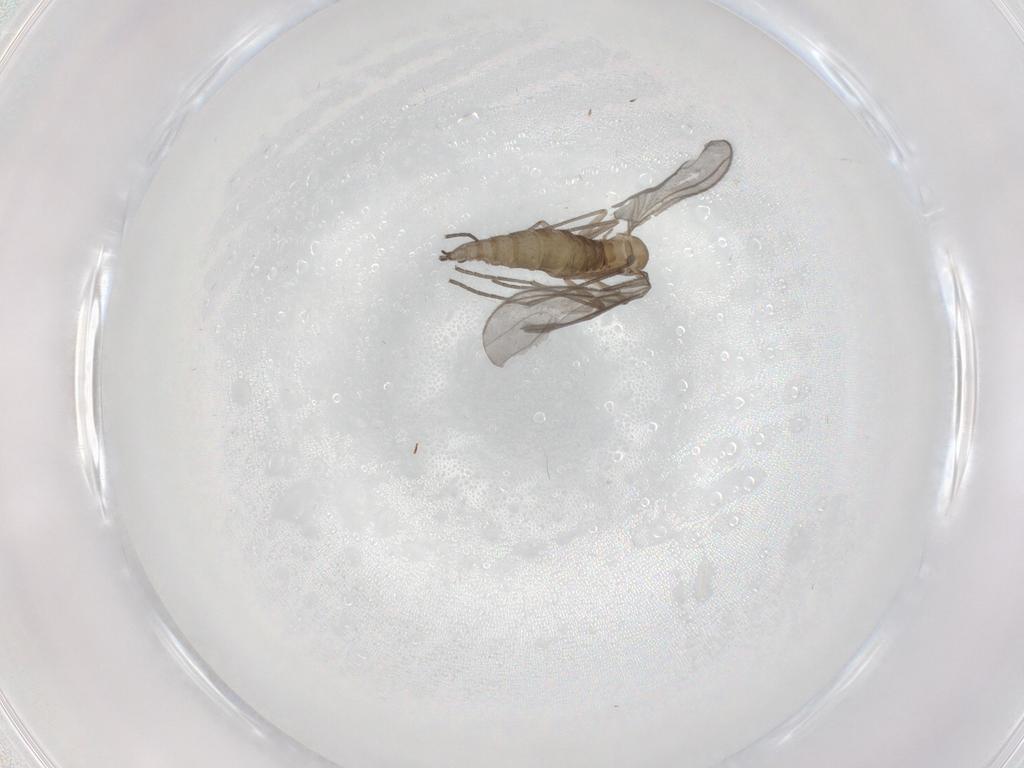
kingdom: Animalia
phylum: Arthropoda
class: Insecta
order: Diptera
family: Sciaridae
